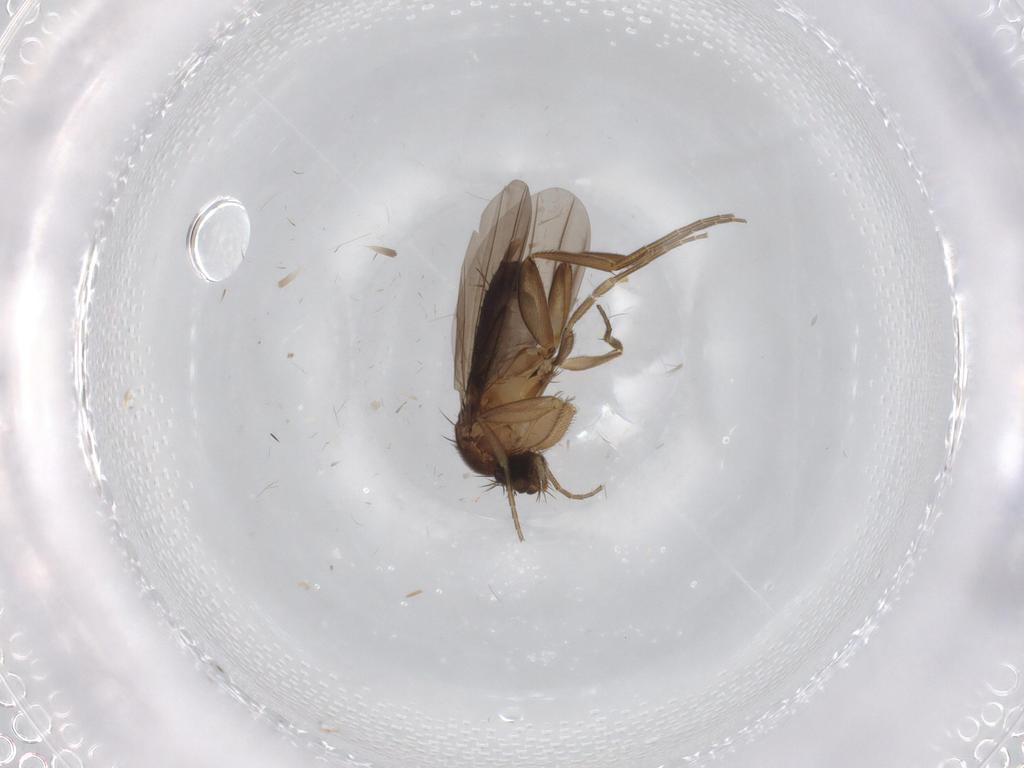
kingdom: Animalia
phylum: Arthropoda
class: Insecta
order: Diptera
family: Phoridae
